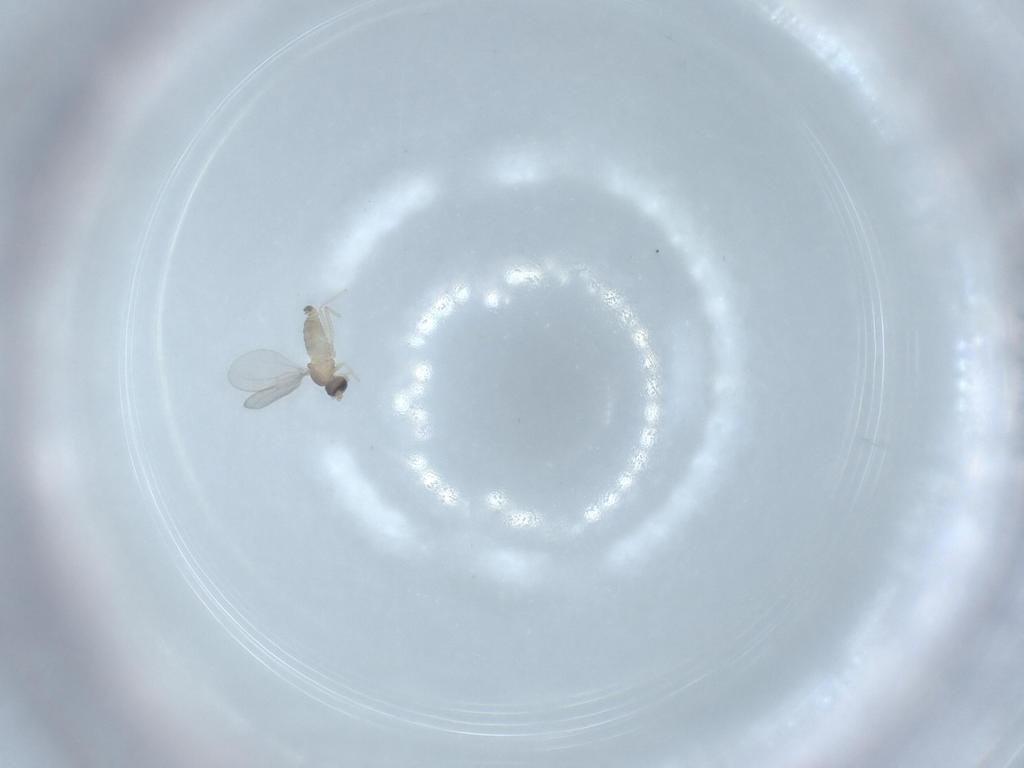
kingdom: Animalia
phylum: Arthropoda
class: Insecta
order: Diptera
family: Cecidomyiidae
